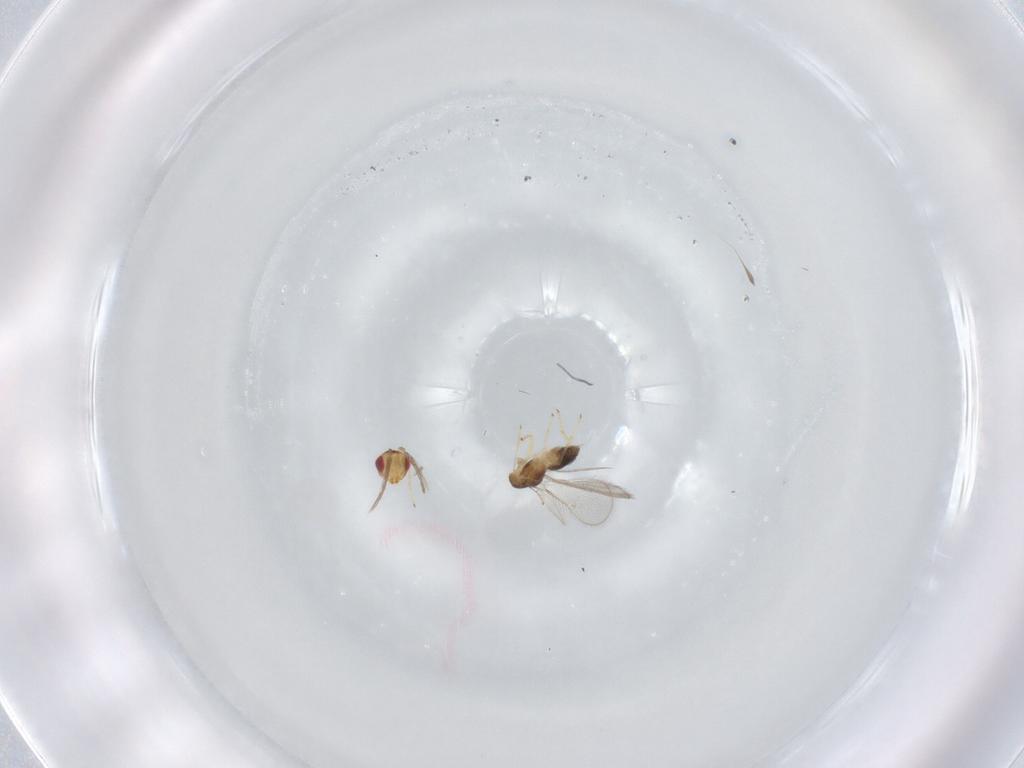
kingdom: Animalia
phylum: Arthropoda
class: Insecta
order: Hymenoptera
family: Eulophidae
